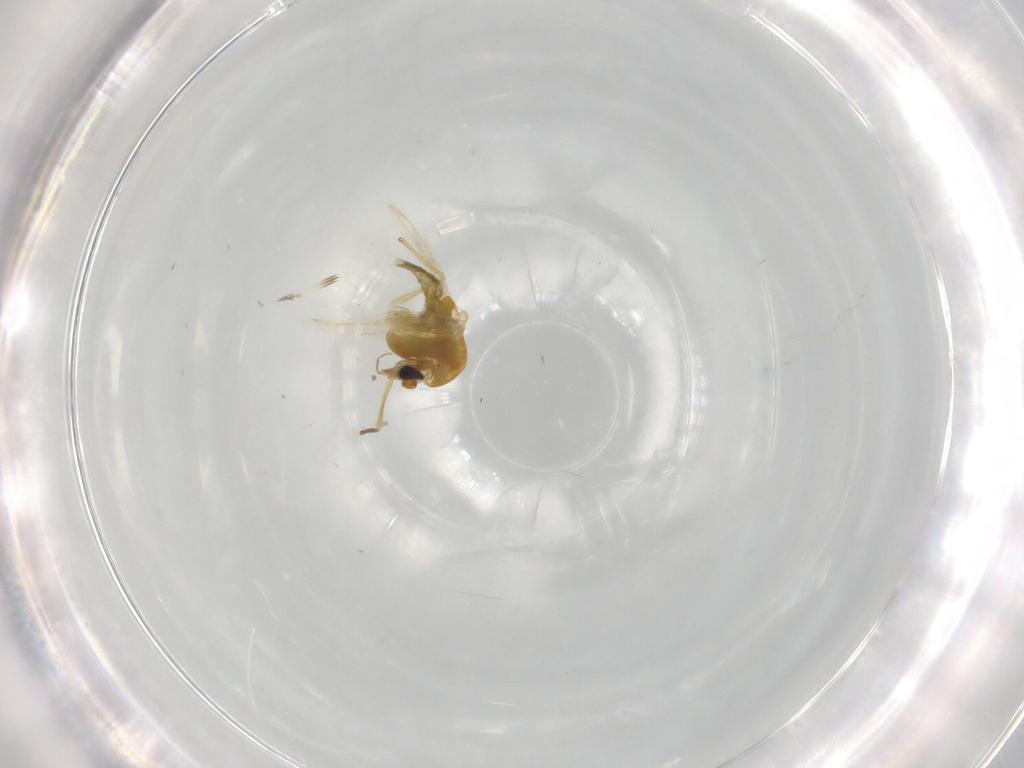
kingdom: Animalia
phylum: Arthropoda
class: Insecta
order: Diptera
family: Chironomidae
